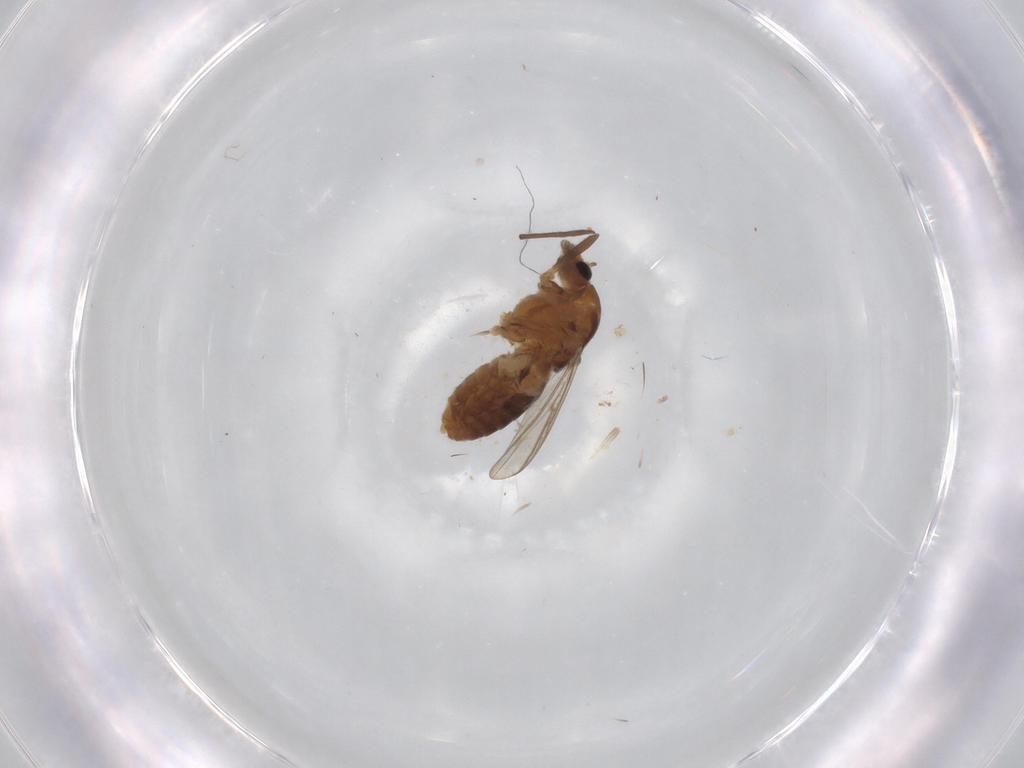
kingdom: Animalia
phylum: Arthropoda
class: Insecta
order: Diptera
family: Chironomidae
